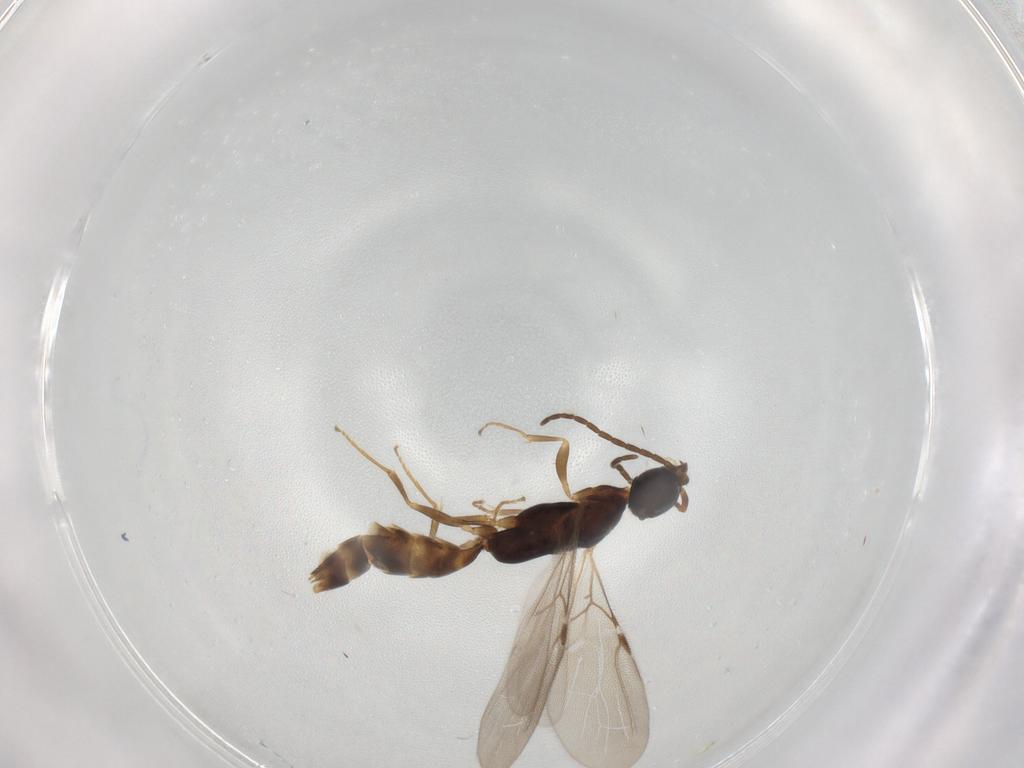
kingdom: Animalia
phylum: Arthropoda
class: Insecta
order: Hymenoptera
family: Bethylidae
